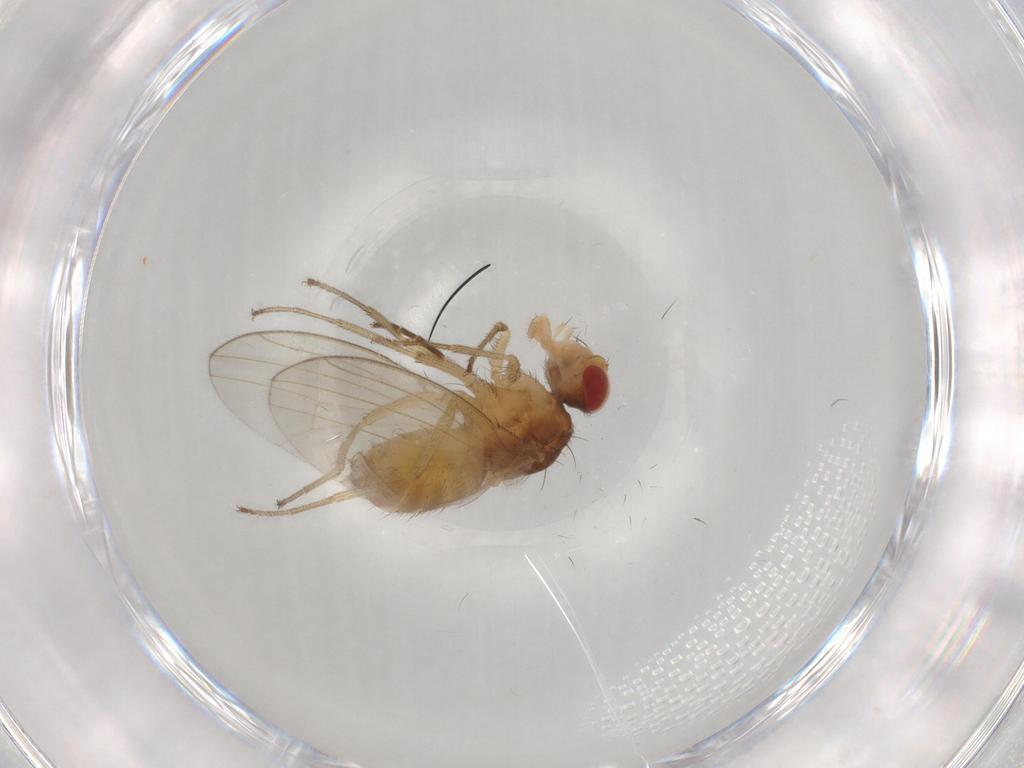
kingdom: Animalia
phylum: Arthropoda
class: Insecta
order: Diptera
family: Drosophilidae
